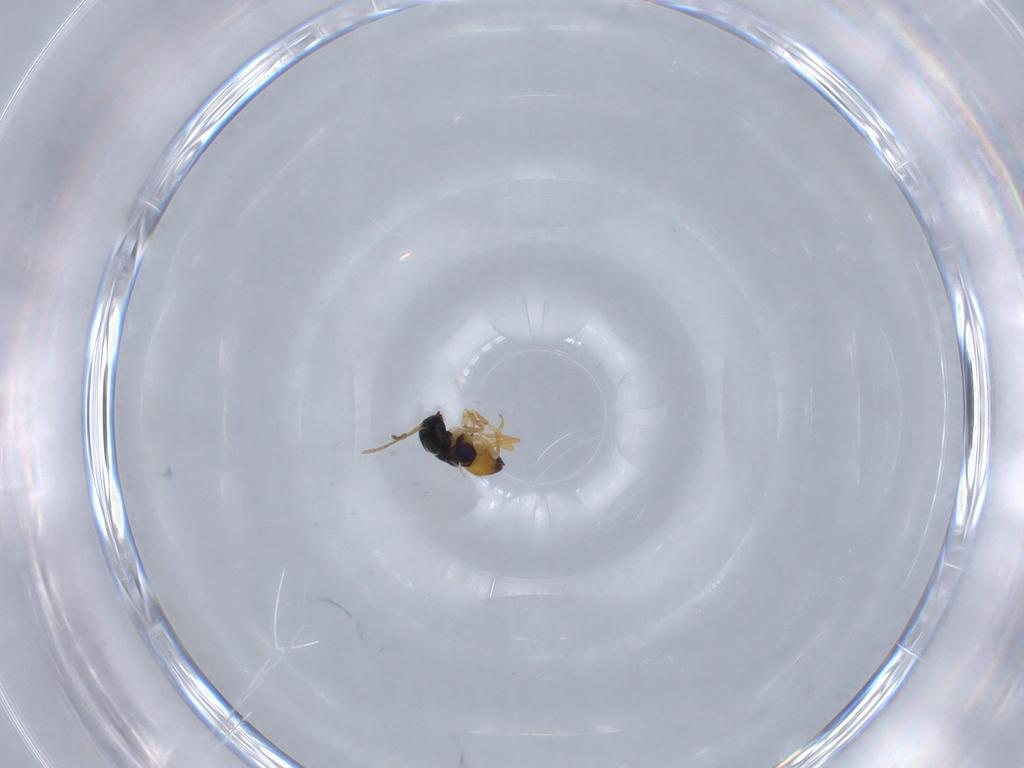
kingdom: Animalia
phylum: Arthropoda
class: Insecta
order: Hymenoptera
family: Encyrtidae
